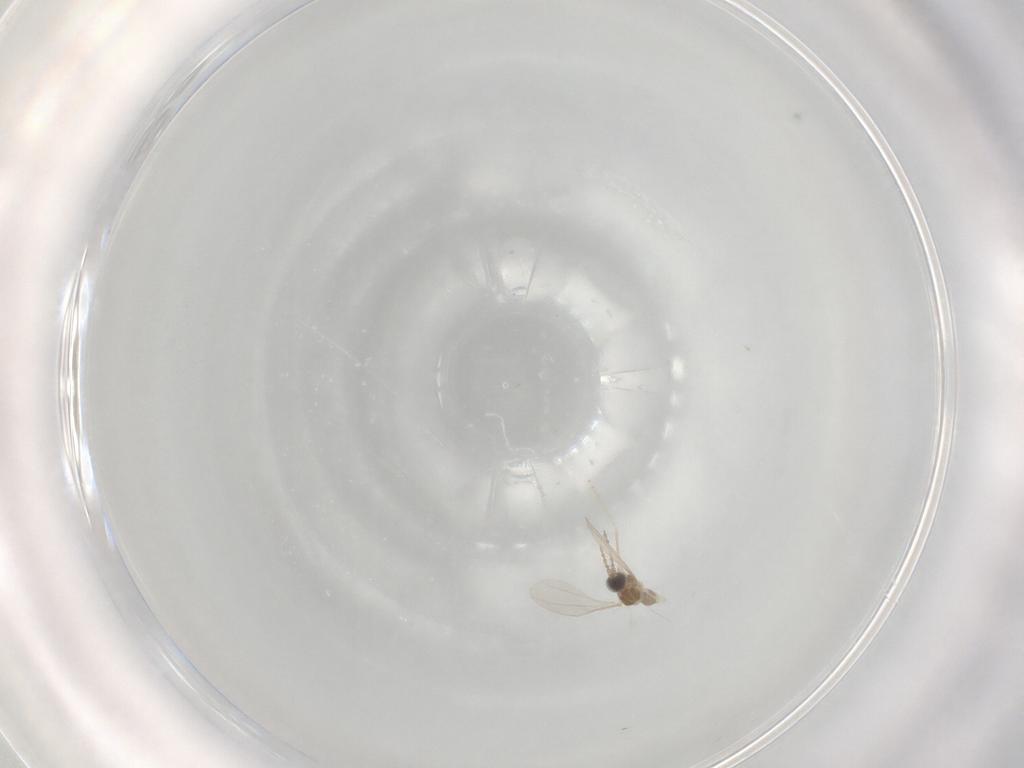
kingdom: Animalia
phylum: Arthropoda
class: Insecta
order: Diptera
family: Cecidomyiidae
